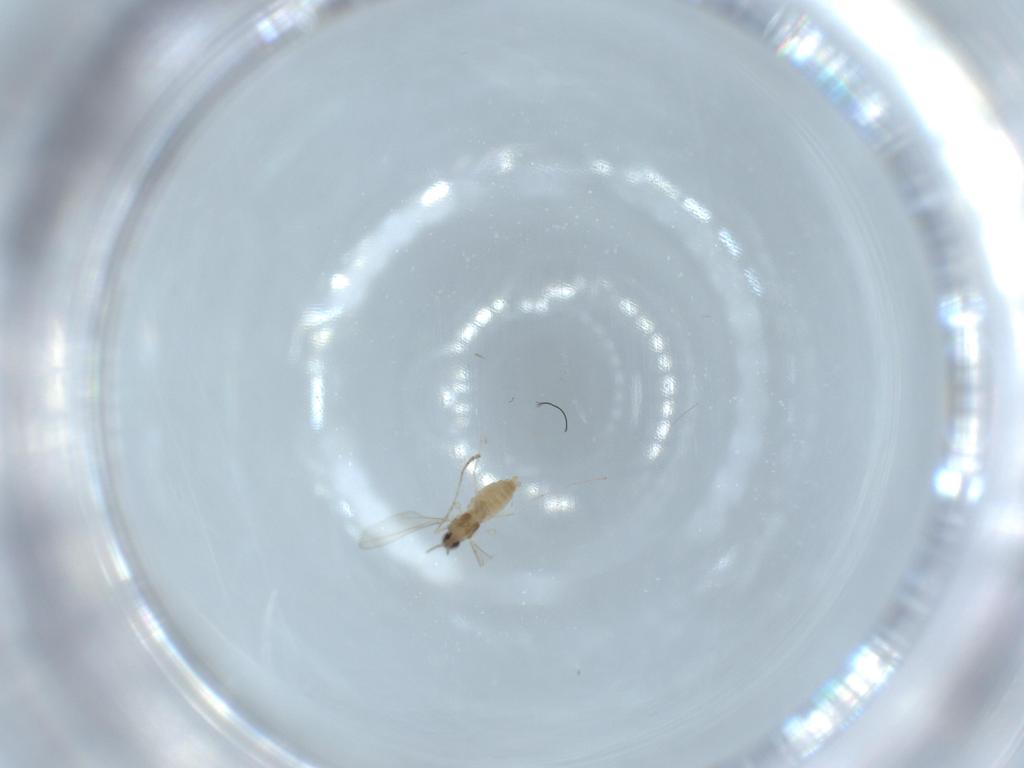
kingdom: Animalia
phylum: Arthropoda
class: Insecta
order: Diptera
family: Cecidomyiidae
